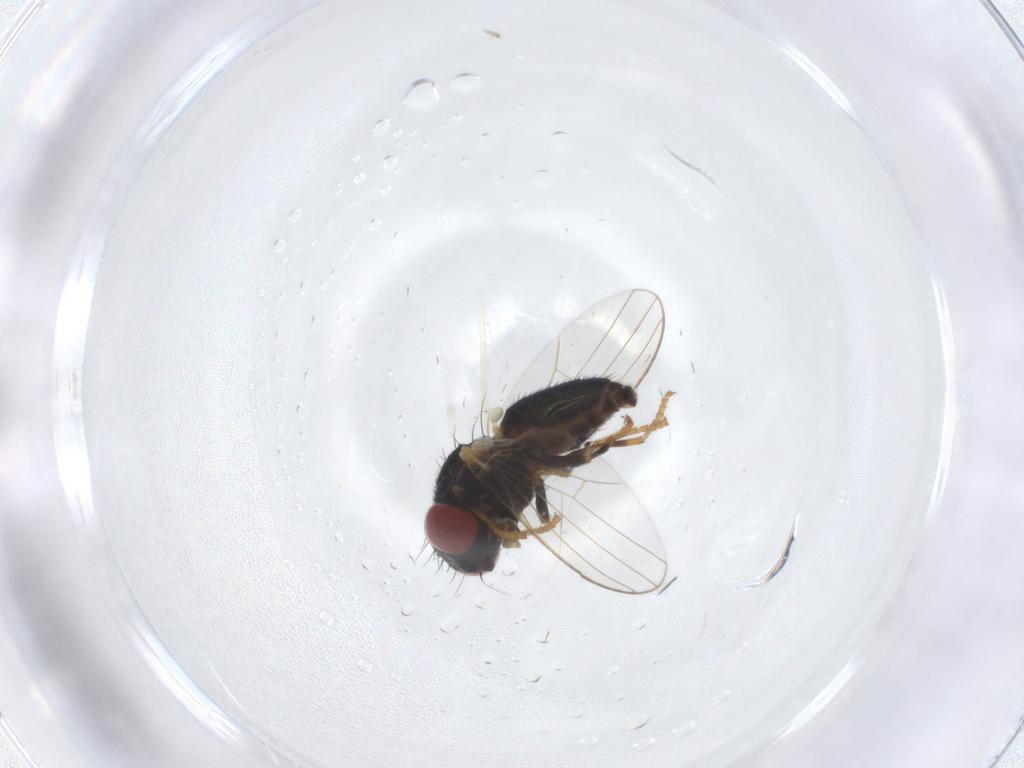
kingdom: Animalia
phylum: Arthropoda
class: Insecta
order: Diptera
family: Chamaemyiidae
